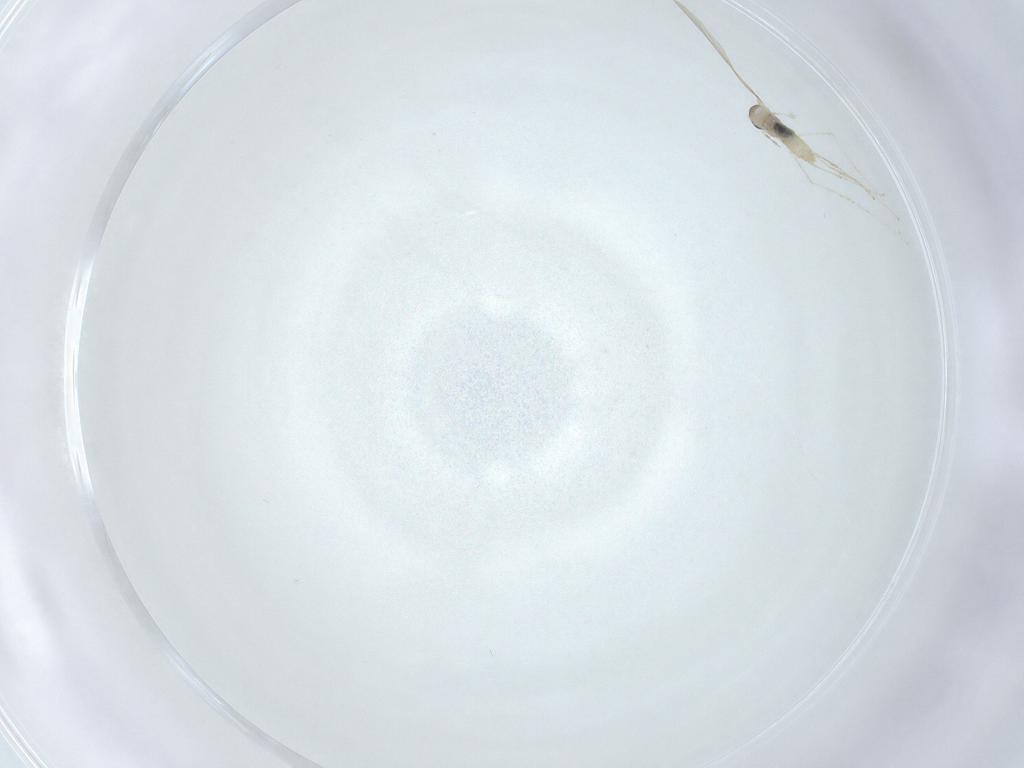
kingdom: Animalia
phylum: Arthropoda
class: Insecta
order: Diptera
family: Cecidomyiidae
